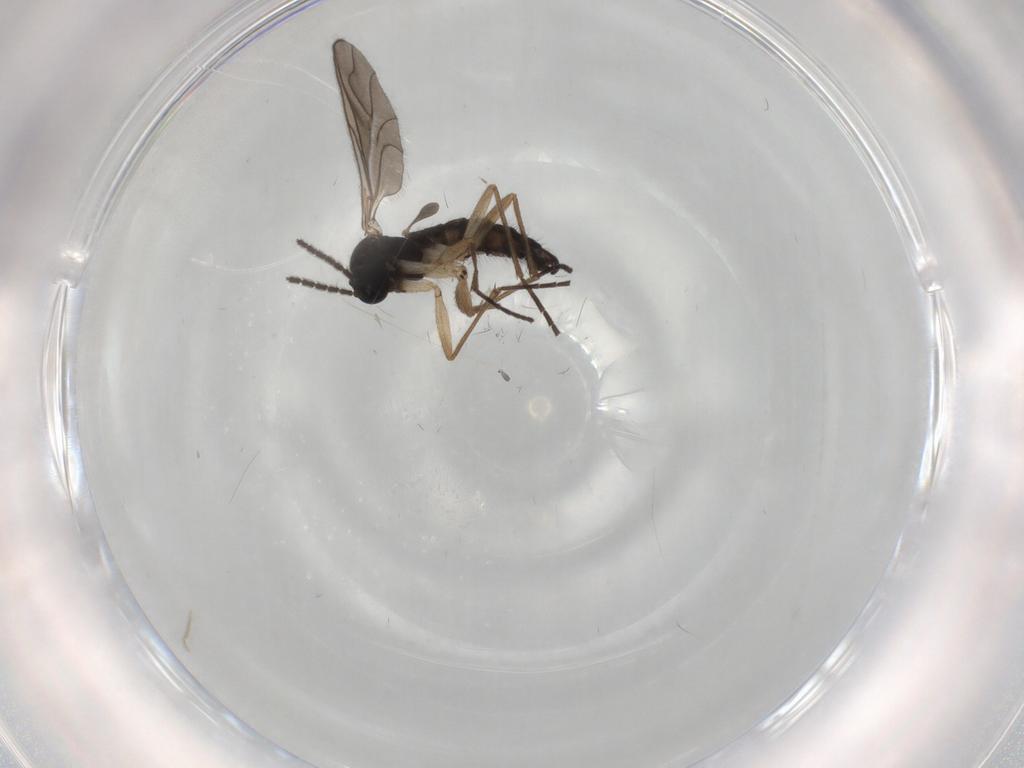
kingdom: Animalia
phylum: Arthropoda
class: Insecta
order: Diptera
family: Sciaridae
